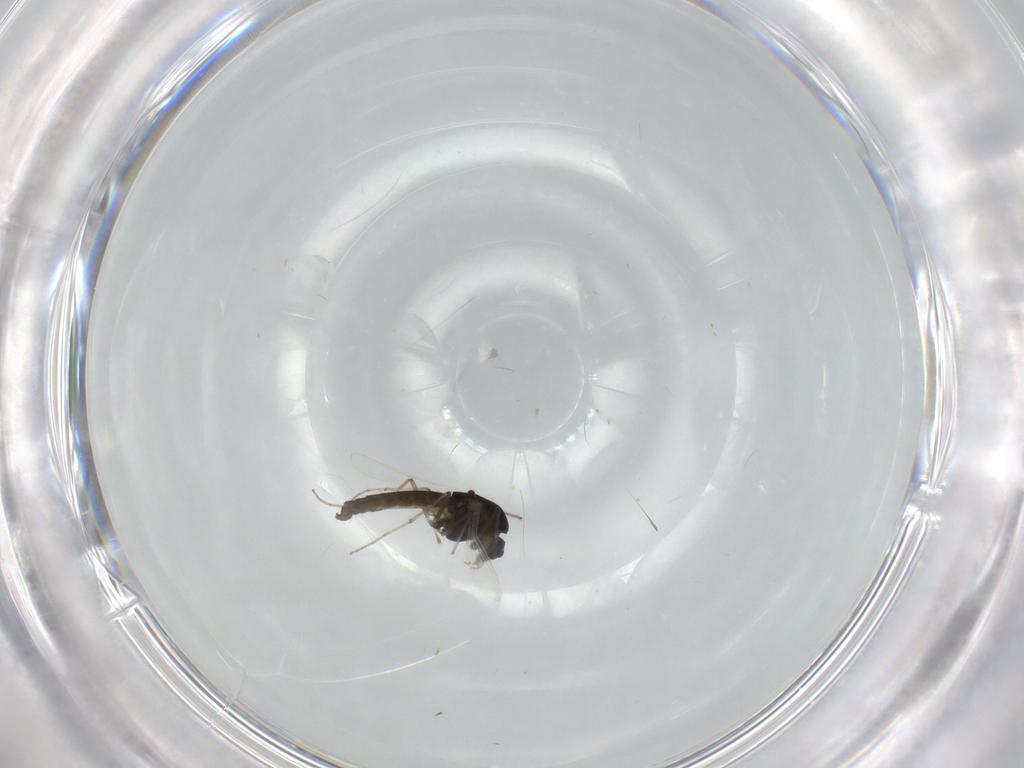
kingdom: Animalia
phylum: Arthropoda
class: Insecta
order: Diptera
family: Chironomidae
